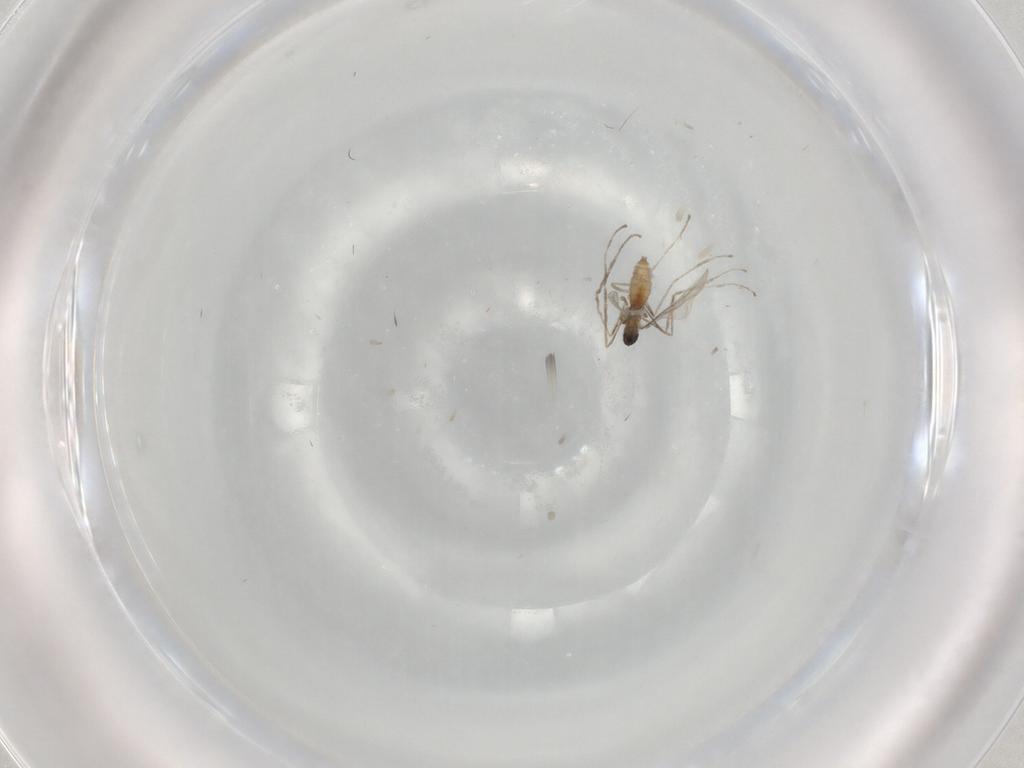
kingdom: Animalia
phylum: Arthropoda
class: Insecta
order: Diptera
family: Cecidomyiidae
